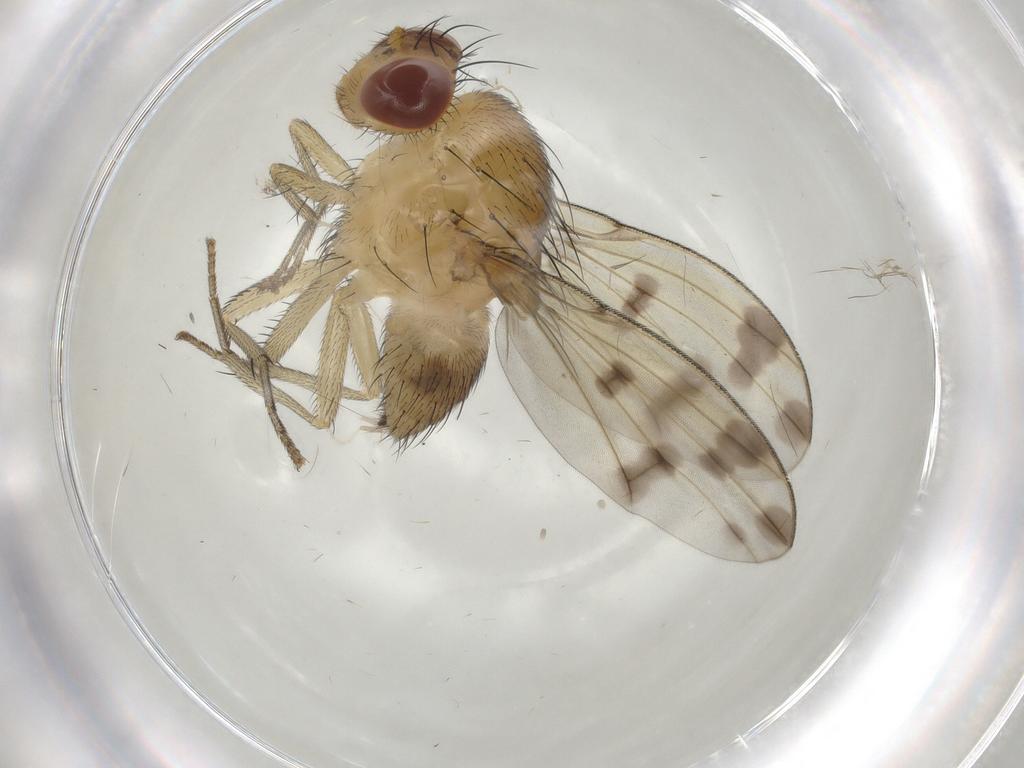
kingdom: Animalia
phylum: Arthropoda
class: Insecta
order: Diptera
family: Cecidomyiidae
